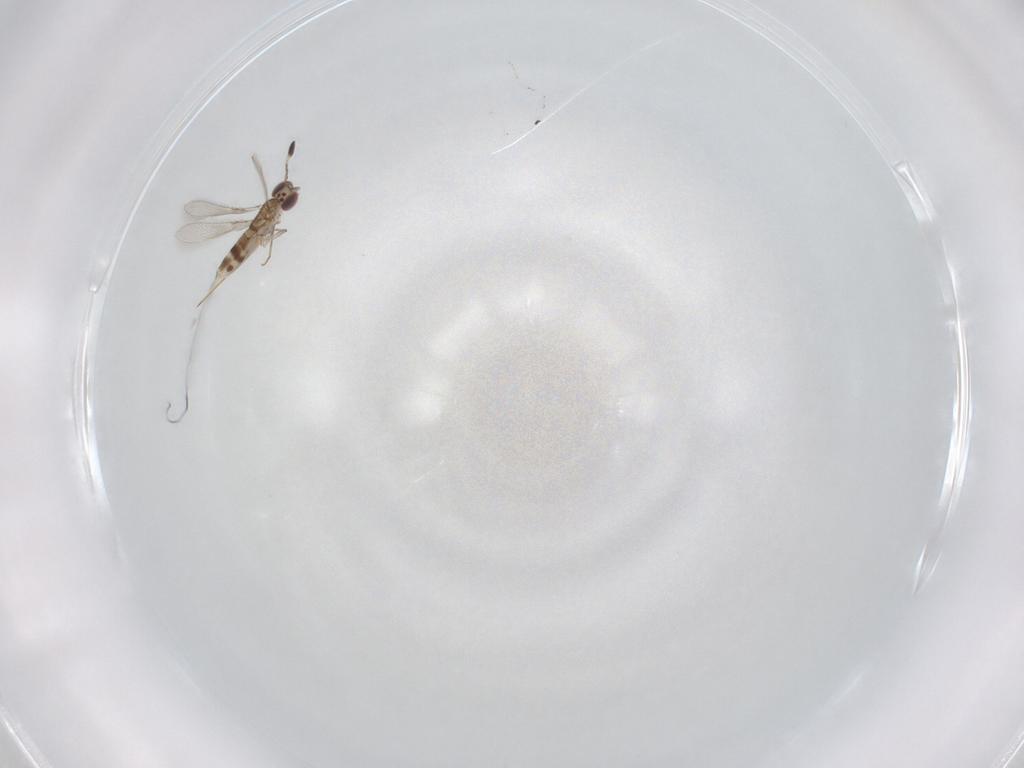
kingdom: Animalia
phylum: Arthropoda
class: Insecta
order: Hymenoptera
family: Mymaridae
